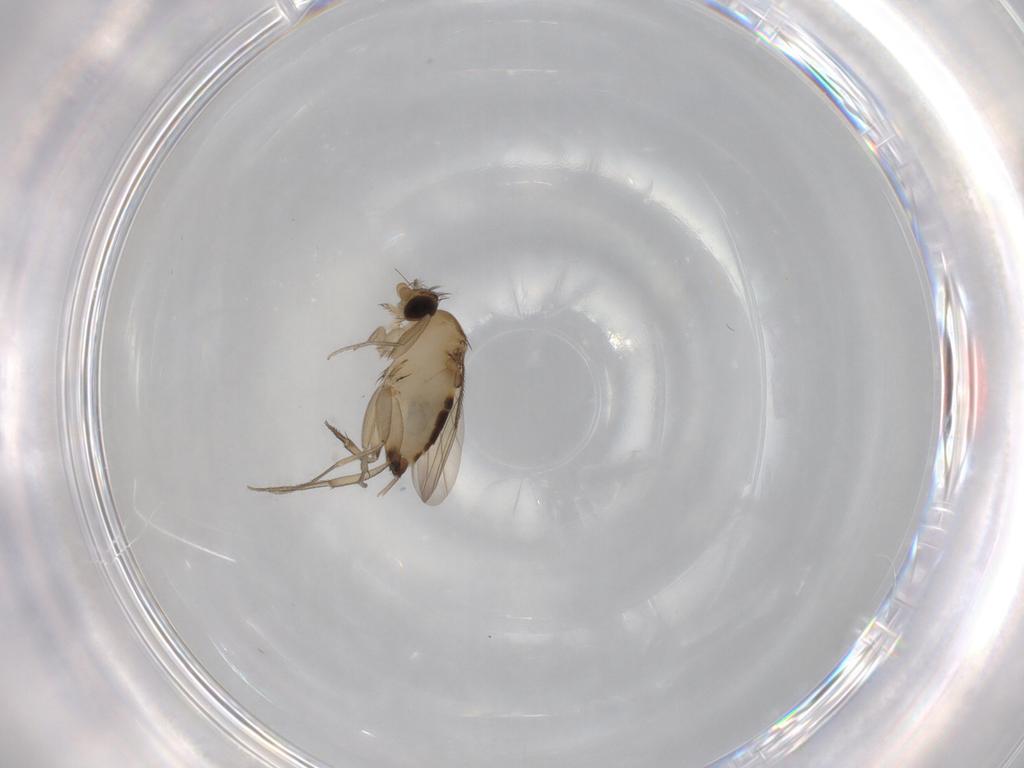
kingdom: Animalia
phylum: Arthropoda
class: Insecta
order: Diptera
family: Phoridae
